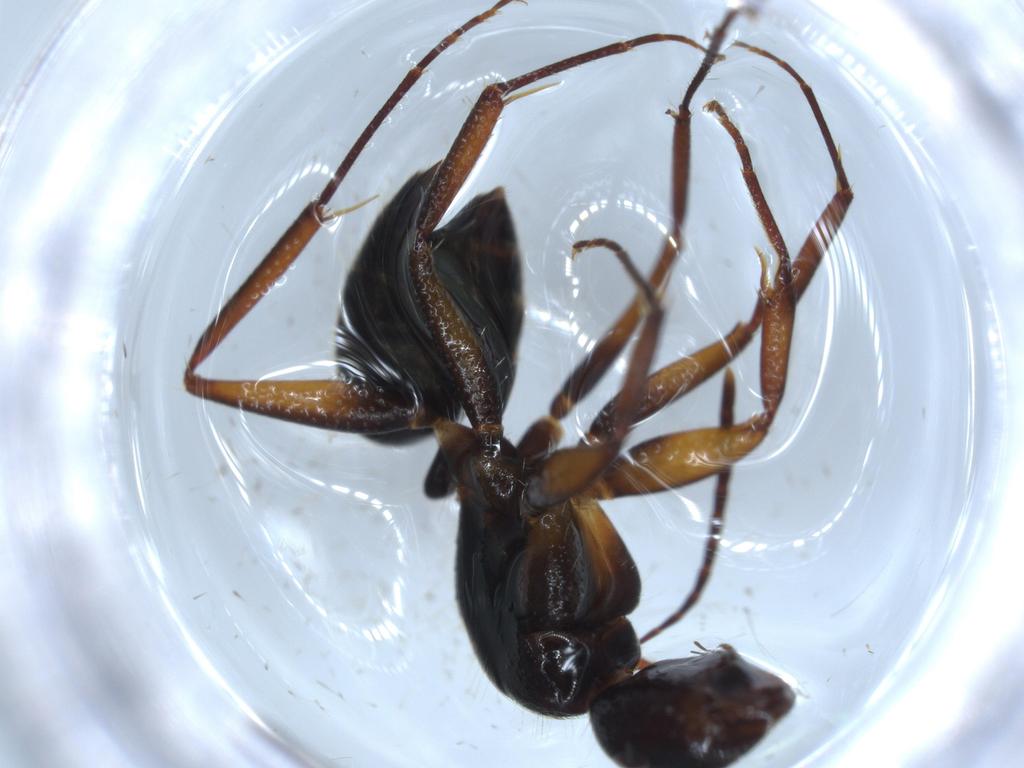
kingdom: Animalia
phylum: Arthropoda
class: Insecta
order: Hymenoptera
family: Formicidae
